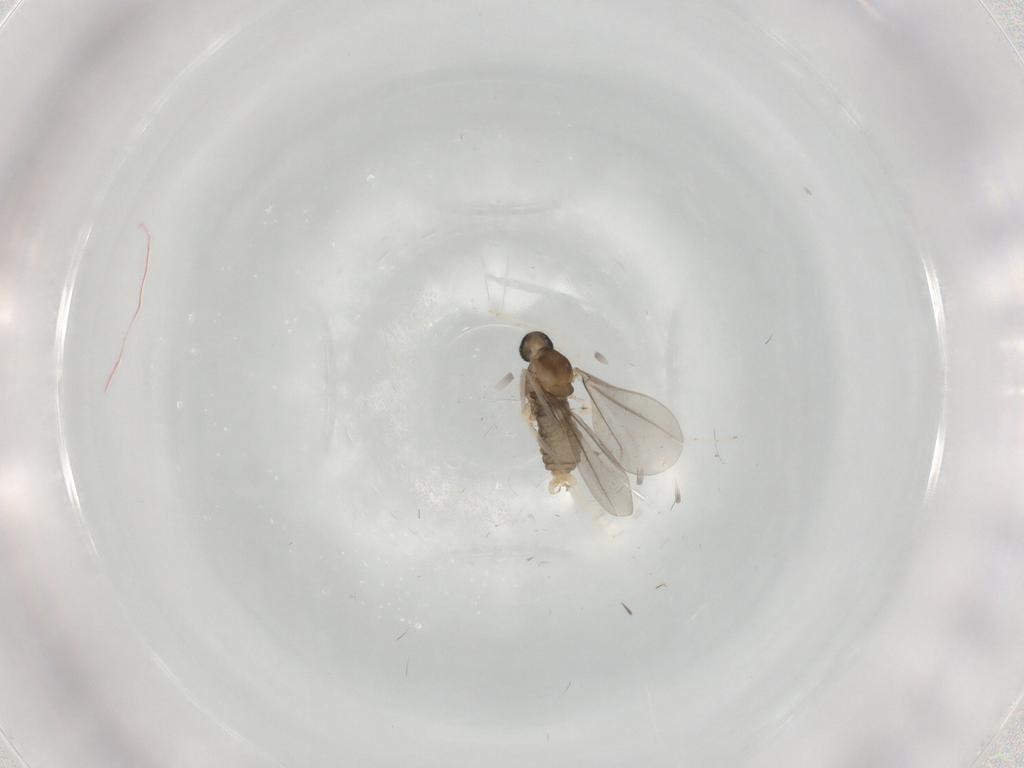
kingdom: Animalia
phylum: Arthropoda
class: Insecta
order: Diptera
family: Cecidomyiidae
